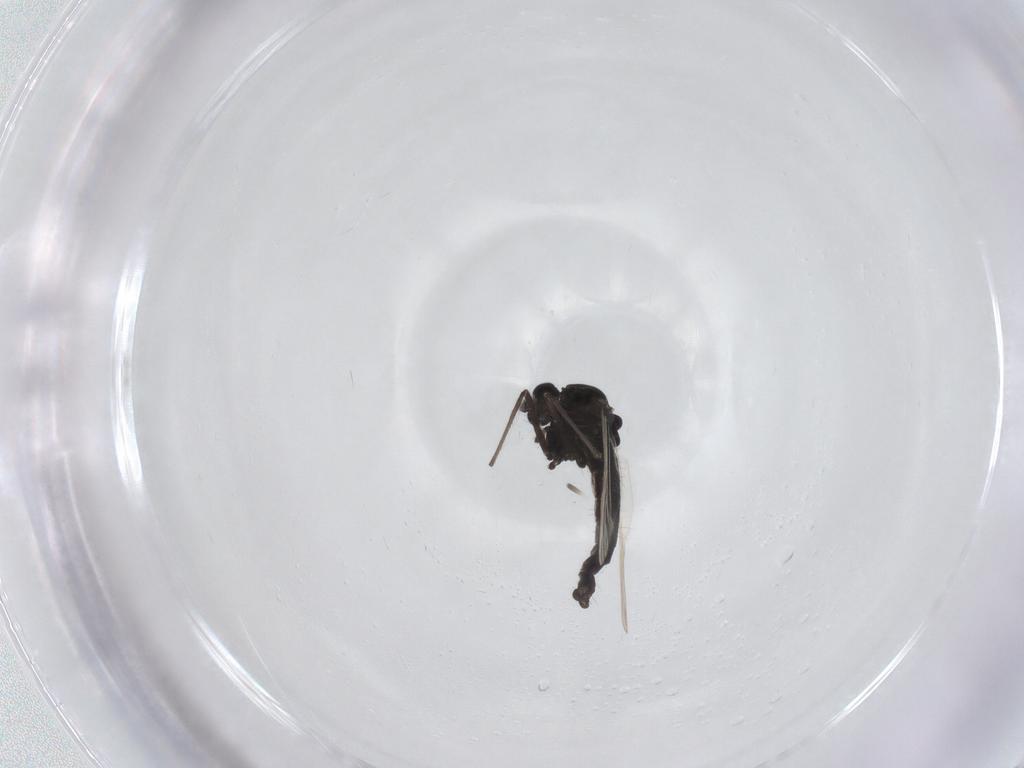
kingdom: Animalia
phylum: Arthropoda
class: Insecta
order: Diptera
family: Chironomidae
